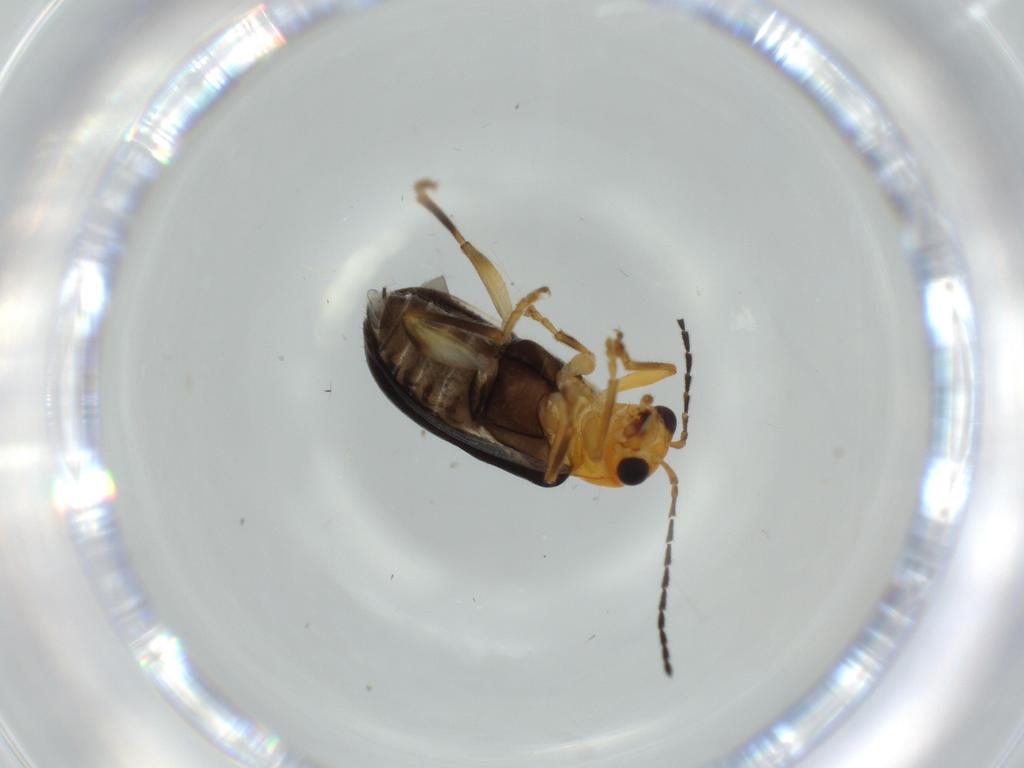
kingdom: Animalia
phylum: Arthropoda
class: Insecta
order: Coleoptera
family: Chrysomelidae
